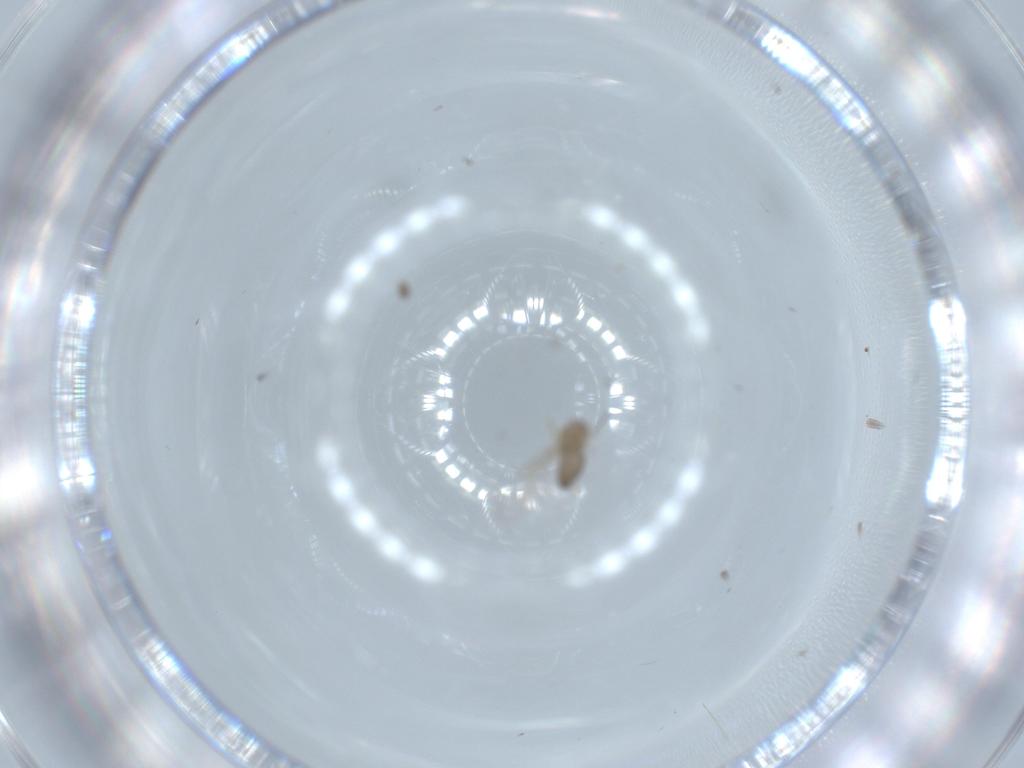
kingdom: Animalia
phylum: Arthropoda
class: Insecta
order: Diptera
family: Cecidomyiidae
